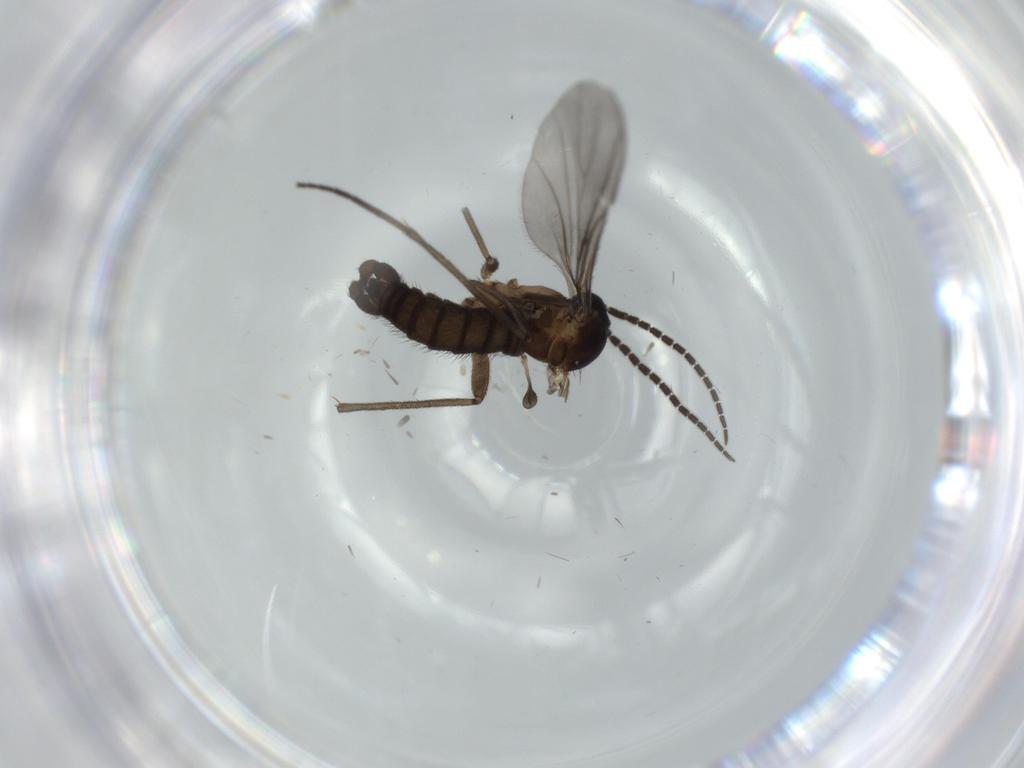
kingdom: Animalia
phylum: Arthropoda
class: Insecta
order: Diptera
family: Sciaridae
